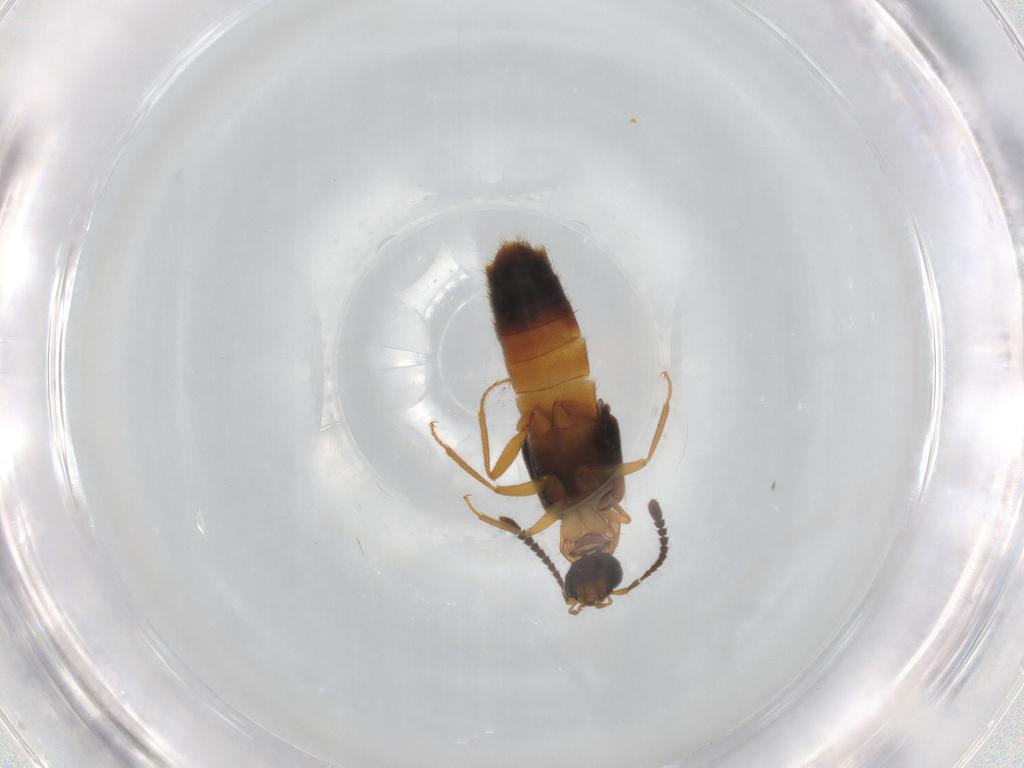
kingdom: Animalia
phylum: Arthropoda
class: Insecta
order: Coleoptera
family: Staphylinidae
